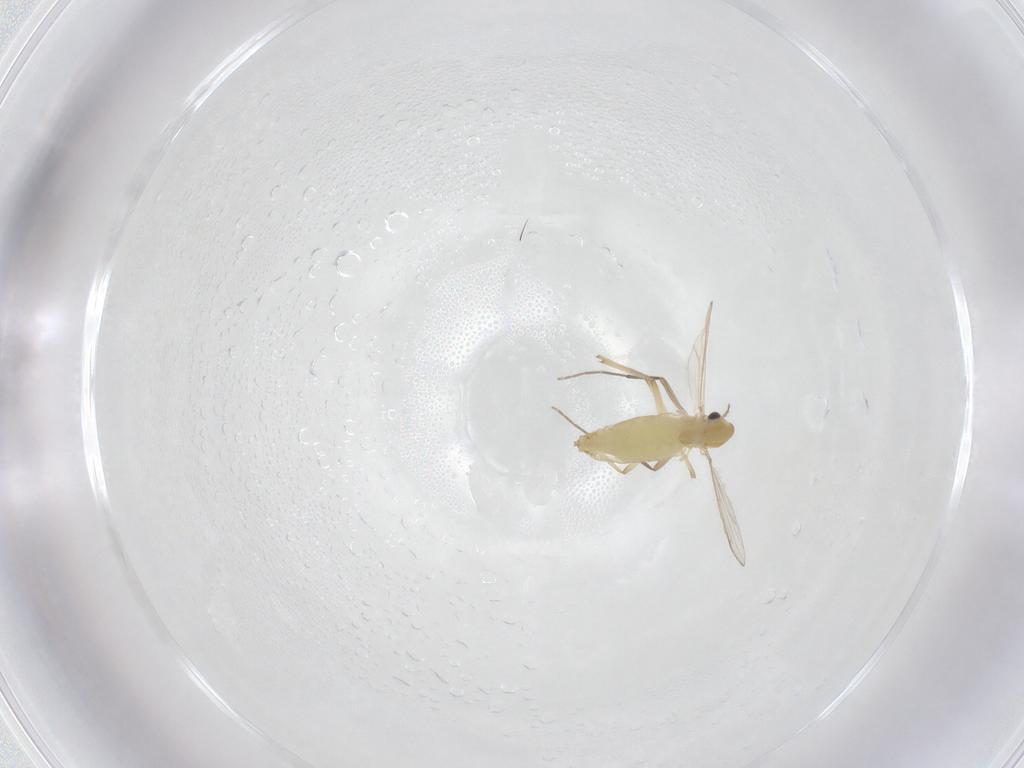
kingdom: Animalia
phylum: Arthropoda
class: Insecta
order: Diptera
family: Chironomidae
